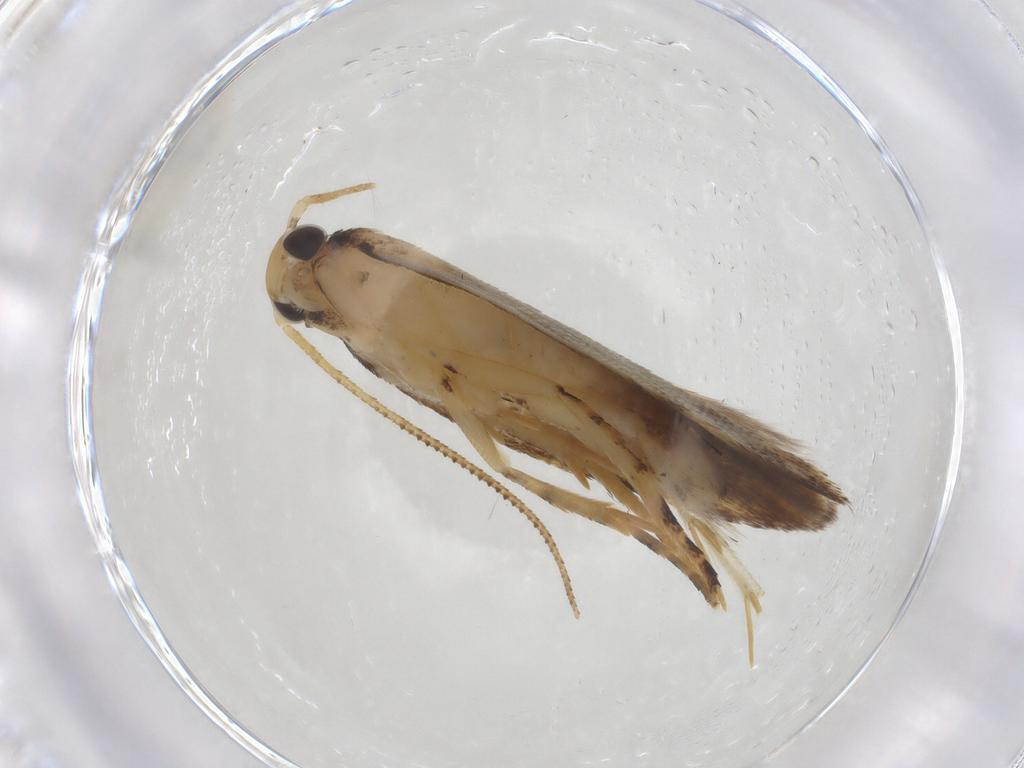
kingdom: Animalia
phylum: Arthropoda
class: Insecta
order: Lepidoptera
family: Gelechiidae
